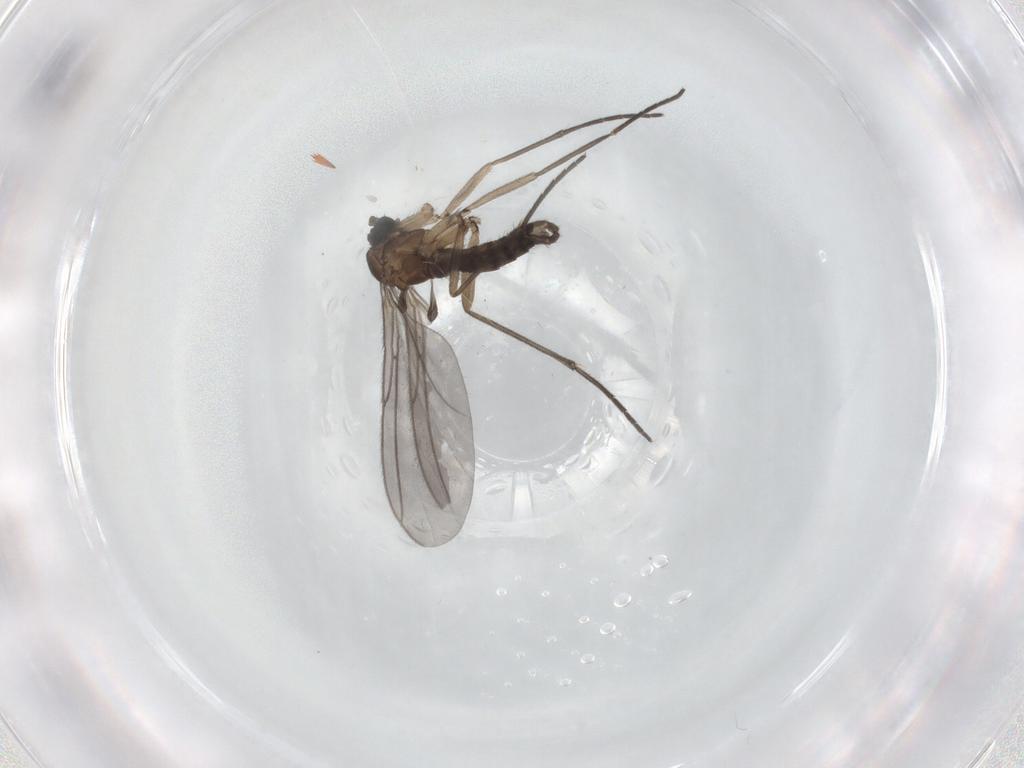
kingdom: Animalia
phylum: Arthropoda
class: Insecta
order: Diptera
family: Sciaridae
